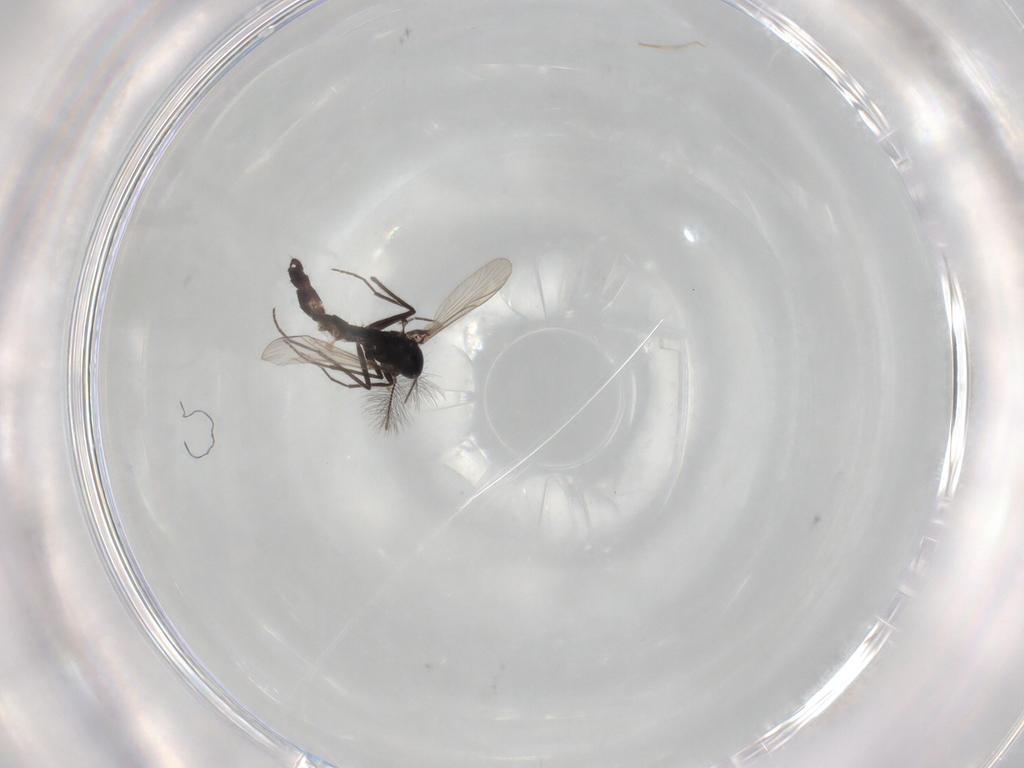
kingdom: Animalia
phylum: Arthropoda
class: Insecta
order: Diptera
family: Chironomidae
